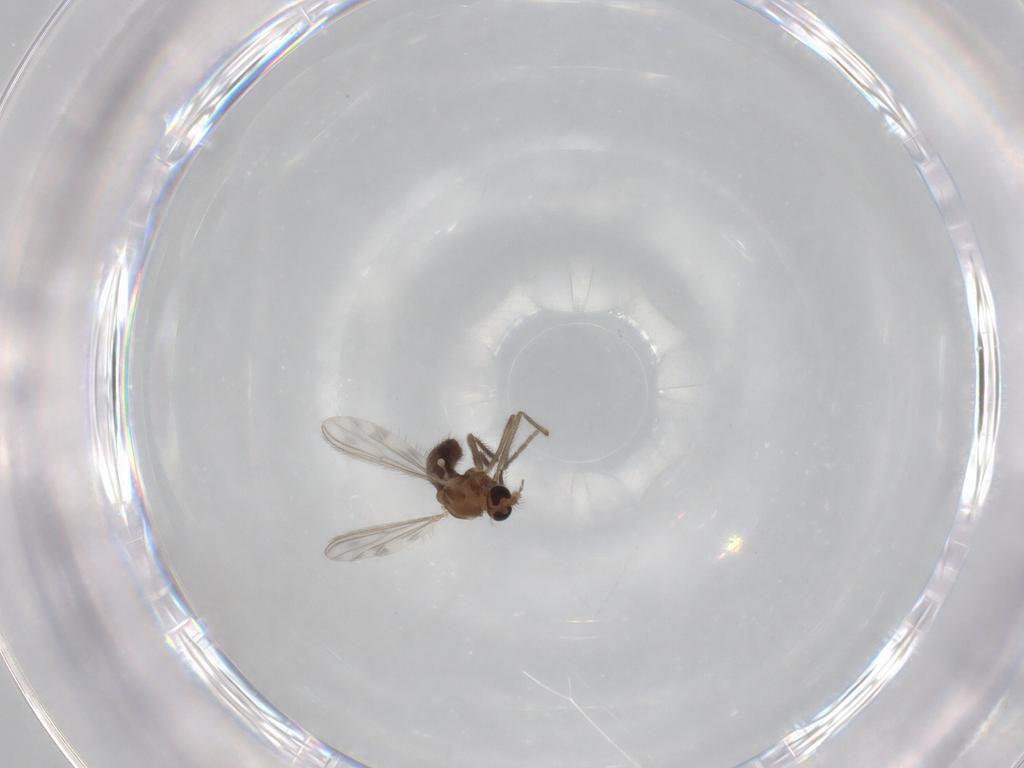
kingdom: Animalia
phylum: Arthropoda
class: Insecta
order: Diptera
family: Chironomidae
